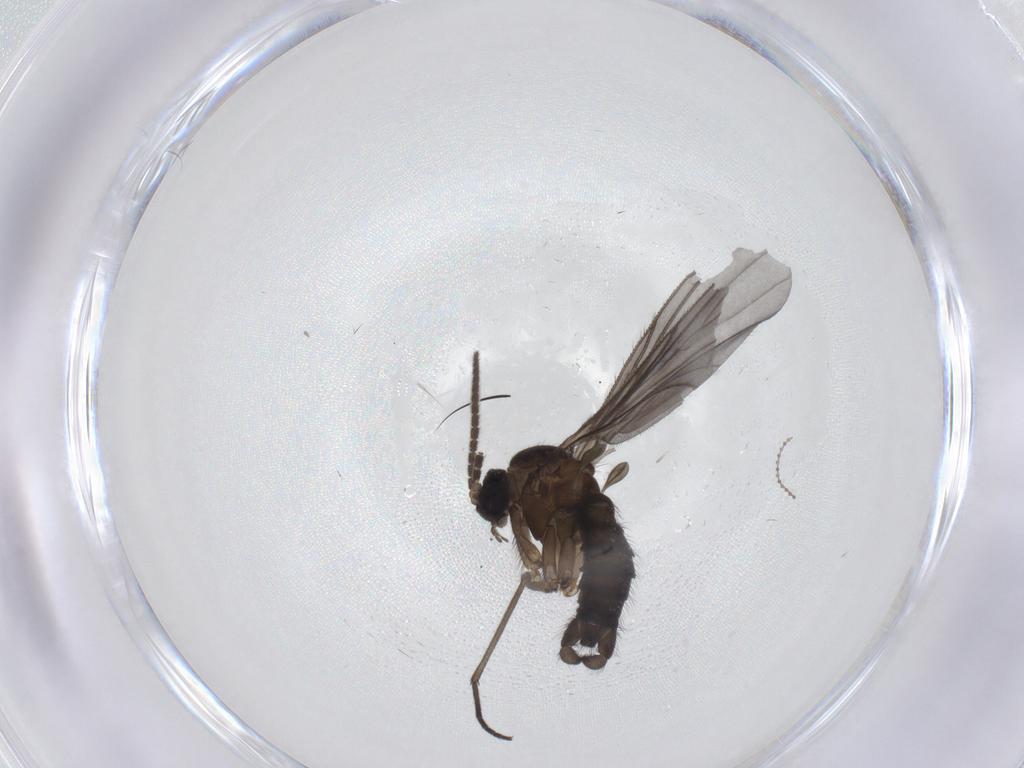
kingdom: Animalia
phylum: Arthropoda
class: Insecta
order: Diptera
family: Sciaridae
